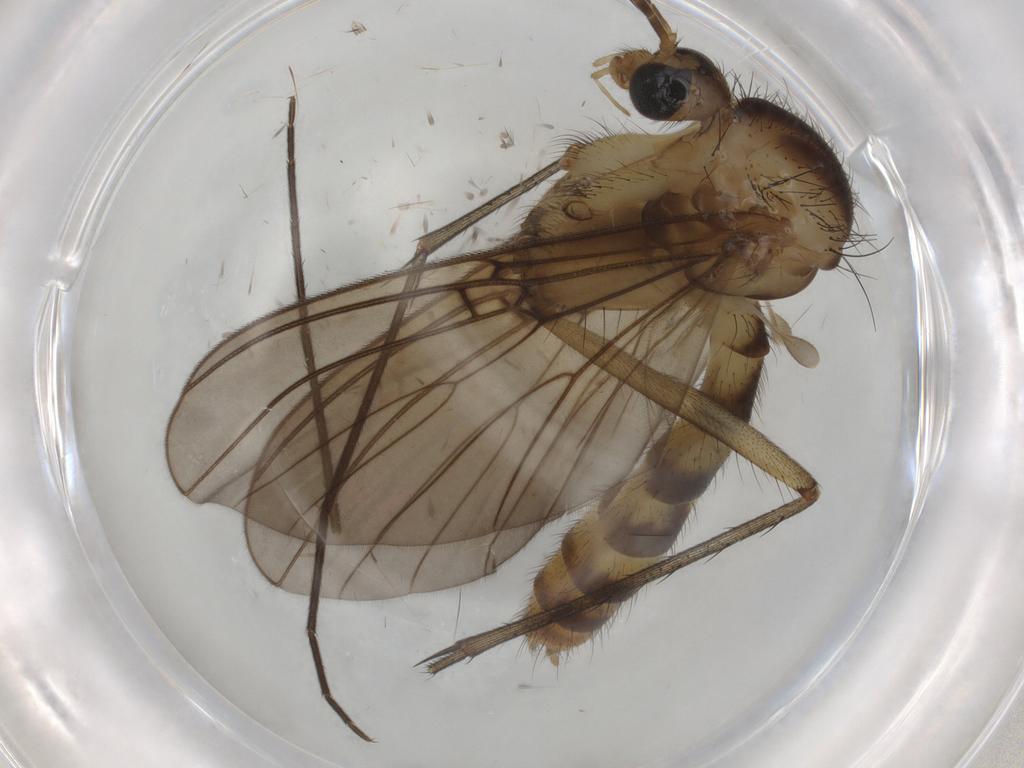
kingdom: Animalia
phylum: Arthropoda
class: Insecta
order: Diptera
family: Mycetophilidae
